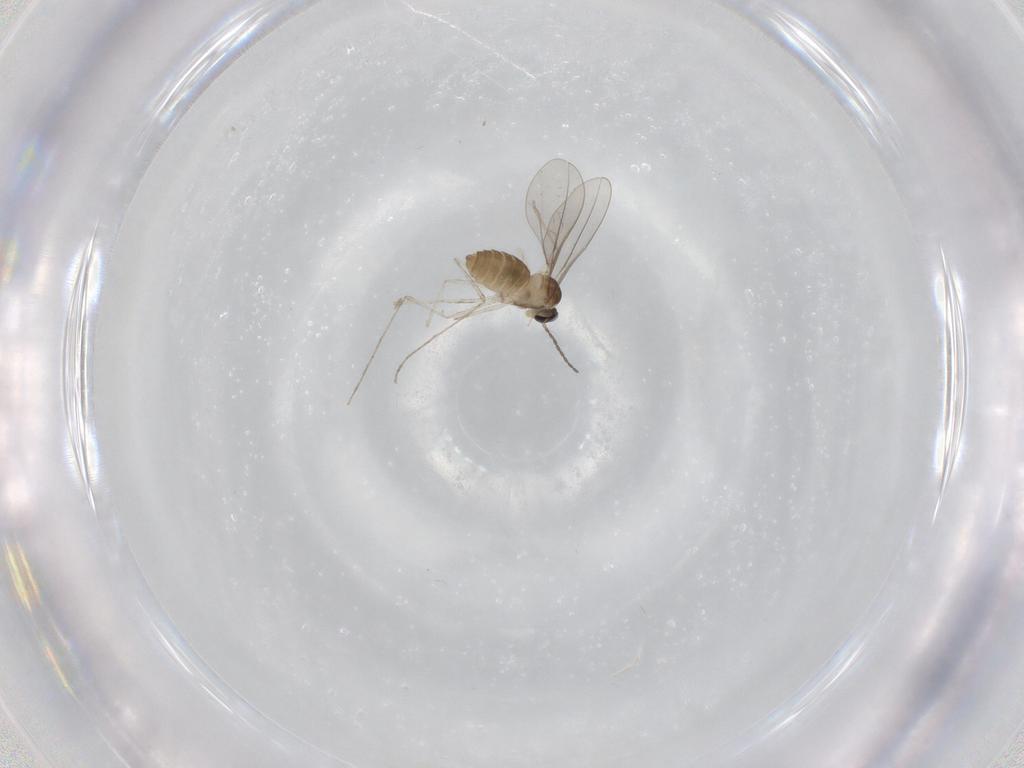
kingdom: Animalia
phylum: Arthropoda
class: Insecta
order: Diptera
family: Cecidomyiidae
